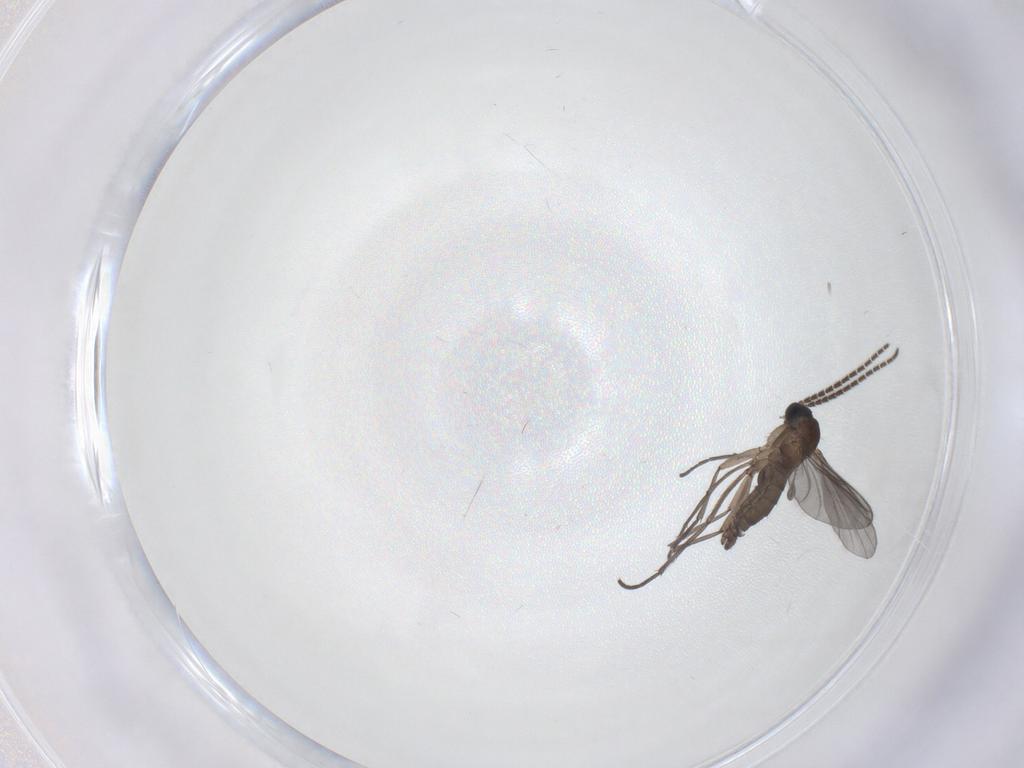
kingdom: Animalia
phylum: Arthropoda
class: Insecta
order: Diptera
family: Sciaridae
